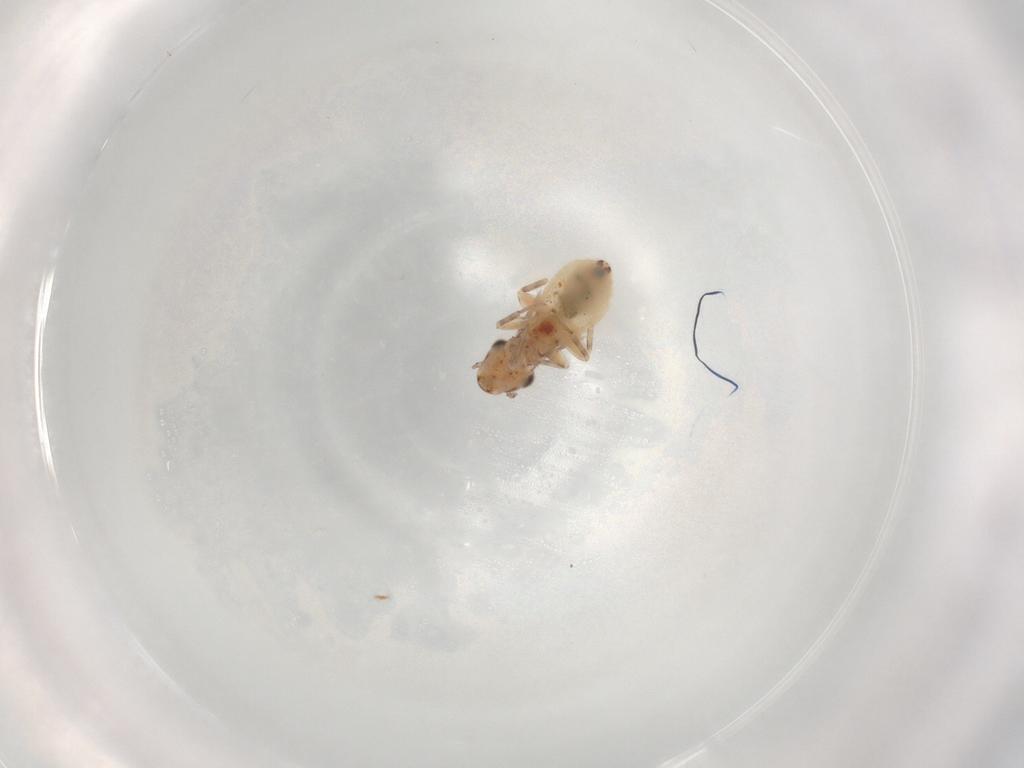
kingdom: Animalia
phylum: Arthropoda
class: Insecta
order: Psocodea
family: Lepidopsocidae
